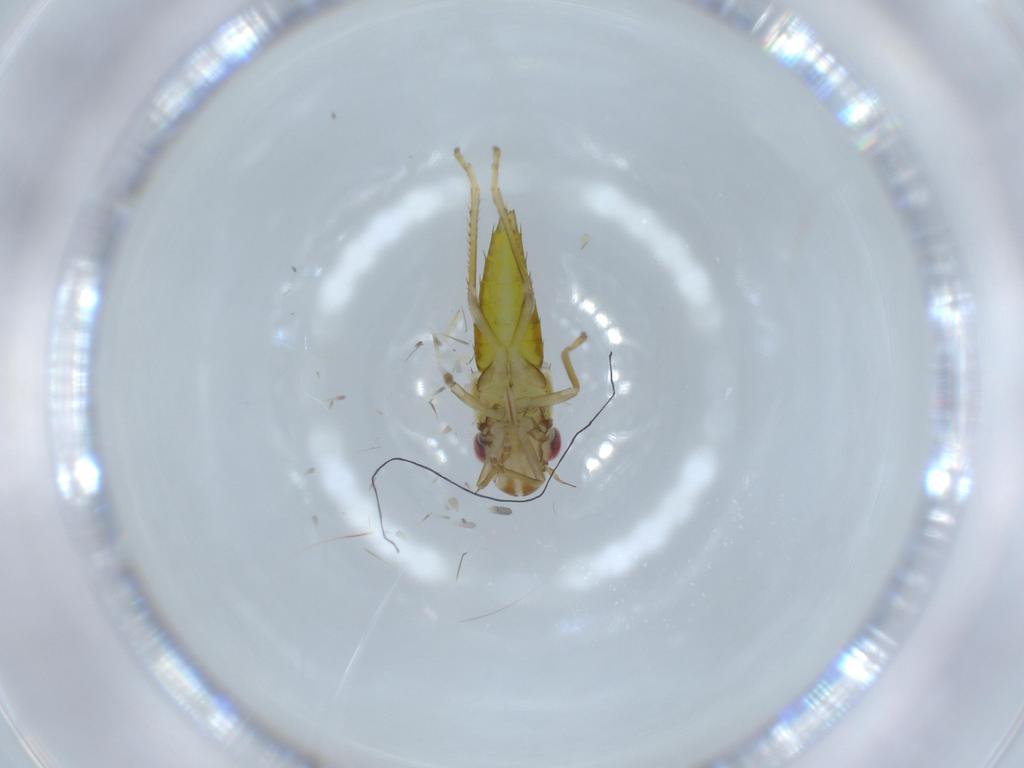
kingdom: Animalia
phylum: Arthropoda
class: Insecta
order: Hemiptera
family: Cicadellidae
